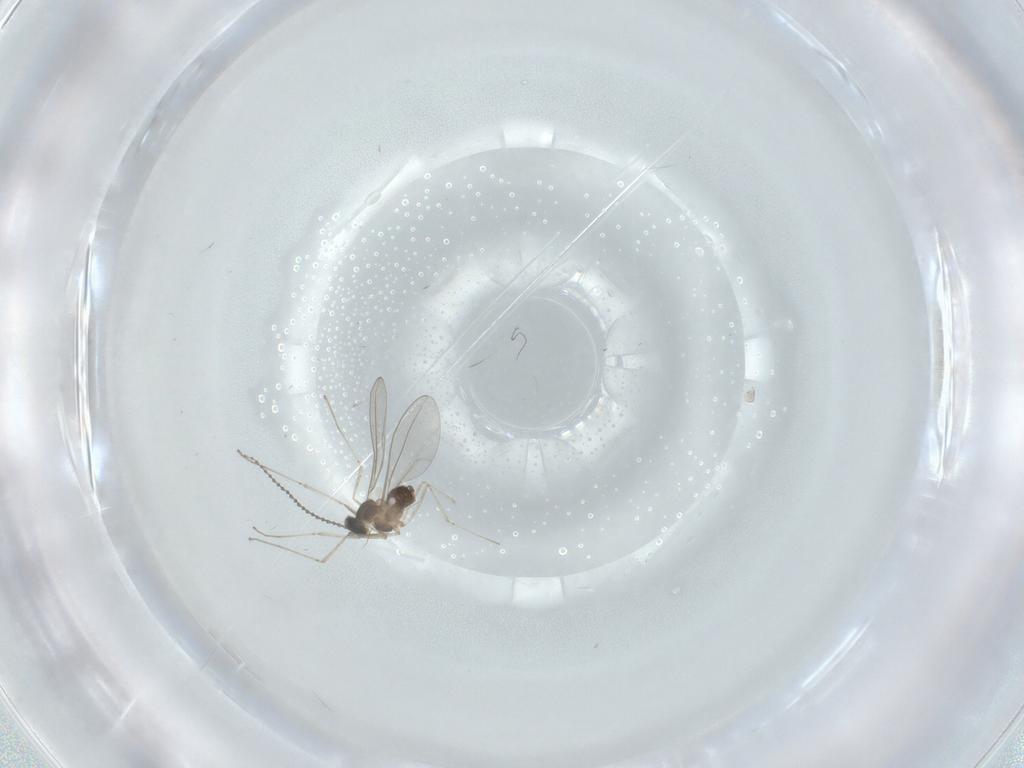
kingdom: Animalia
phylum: Arthropoda
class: Insecta
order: Diptera
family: Cecidomyiidae
